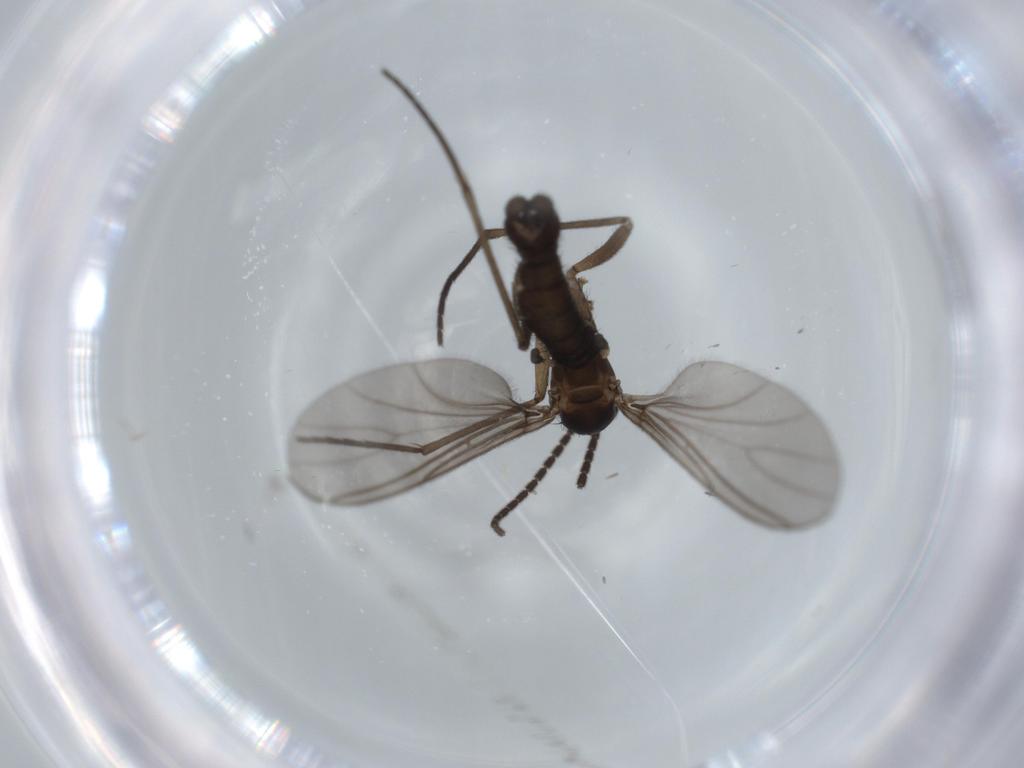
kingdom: Animalia
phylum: Arthropoda
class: Insecta
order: Diptera
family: Sciaridae
